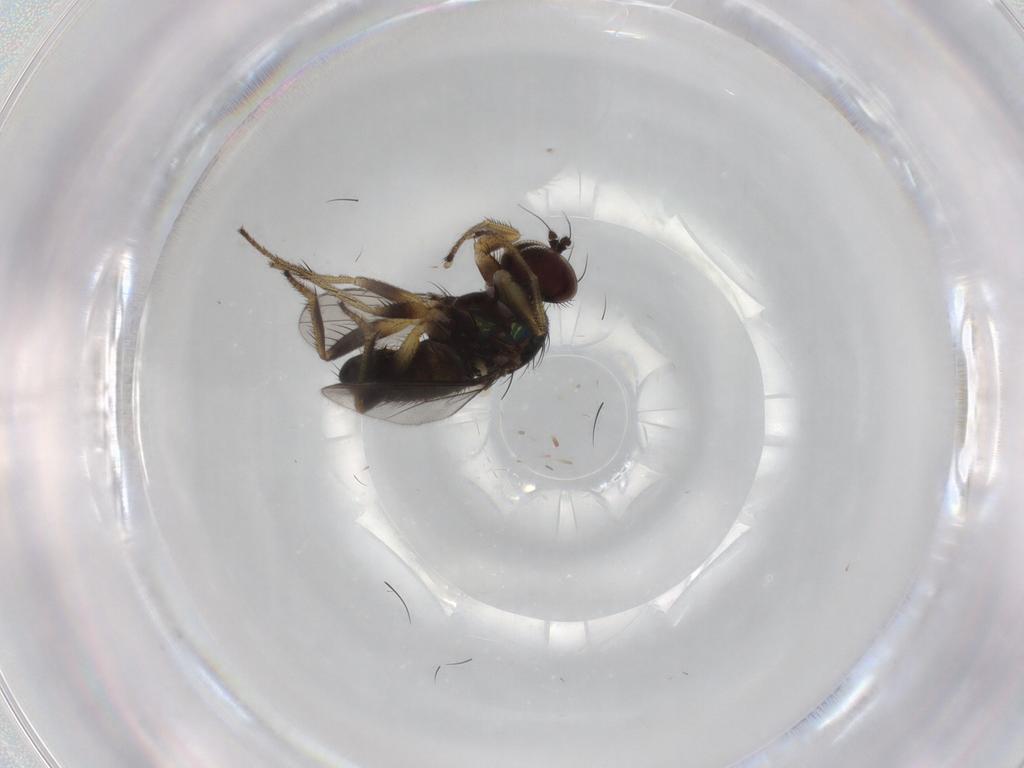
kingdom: Animalia
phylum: Arthropoda
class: Insecta
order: Diptera
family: Dolichopodidae
